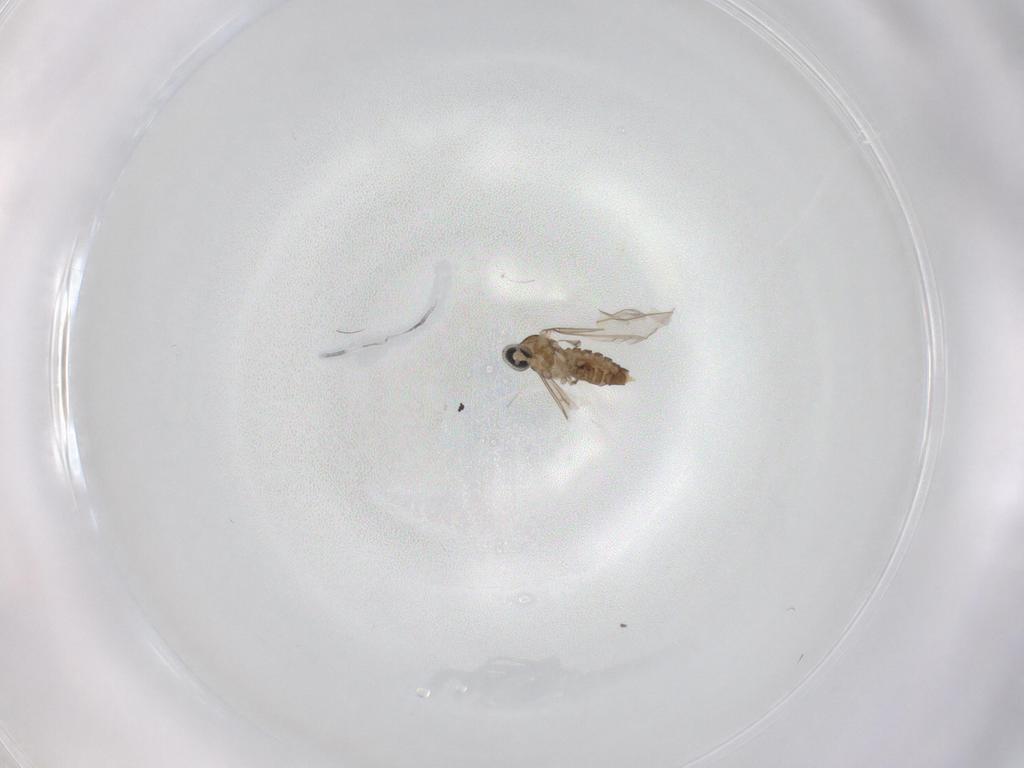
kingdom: Animalia
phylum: Arthropoda
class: Insecta
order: Diptera
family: Cecidomyiidae
